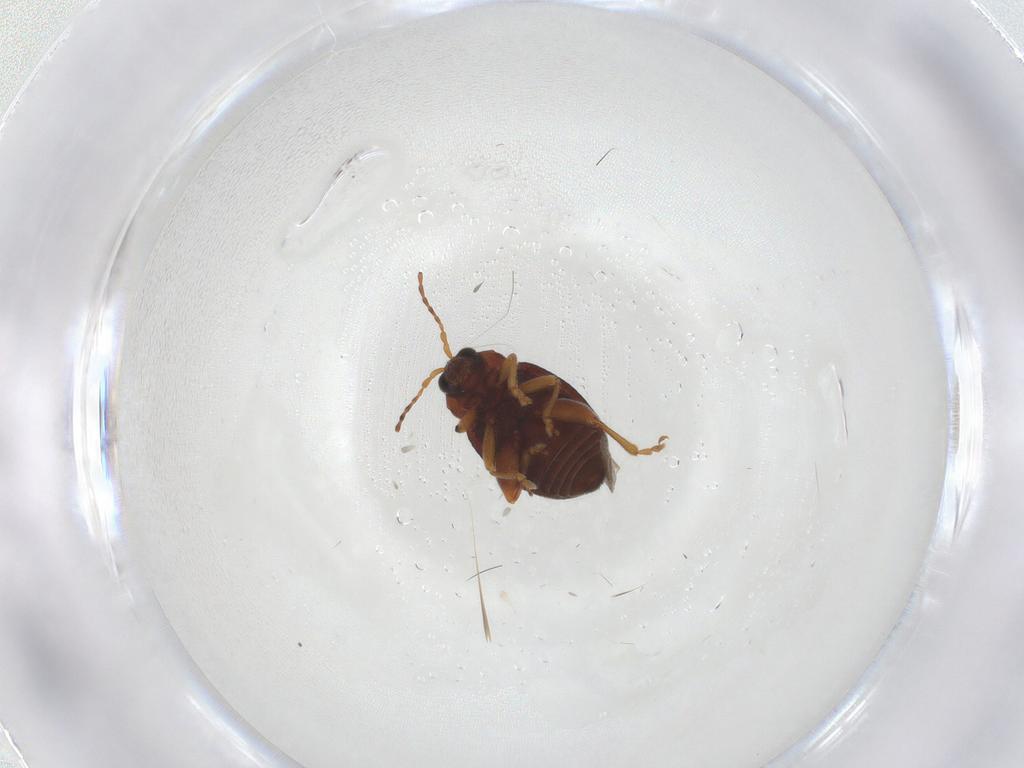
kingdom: Animalia
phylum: Arthropoda
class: Insecta
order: Coleoptera
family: Chrysomelidae
